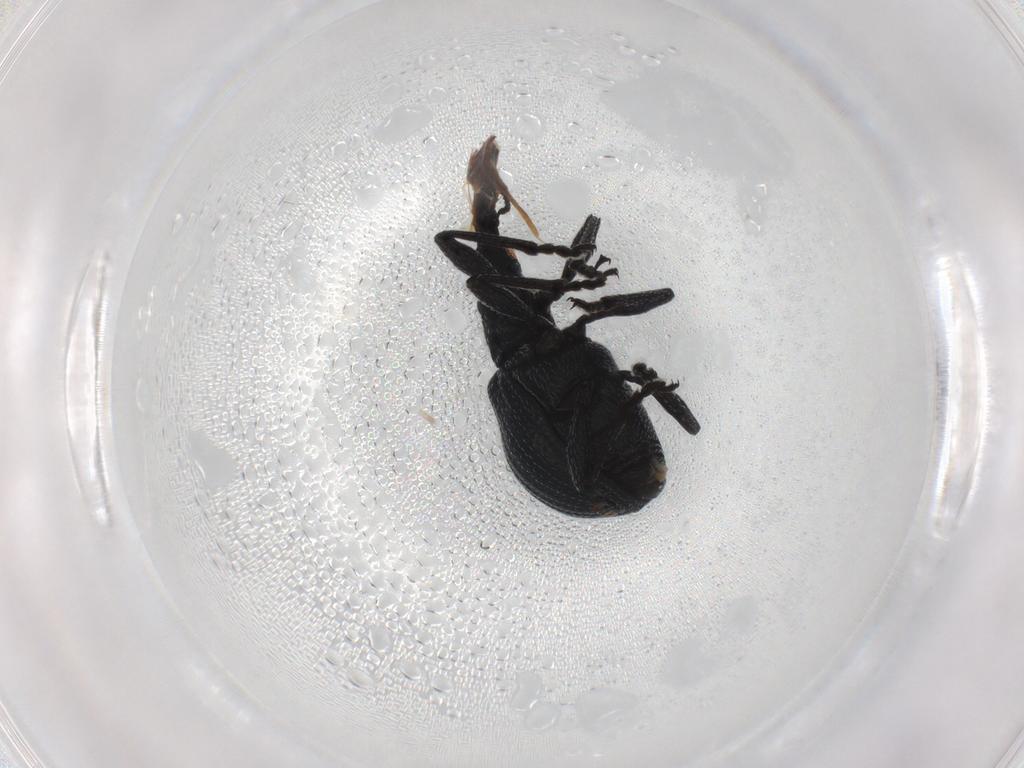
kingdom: Animalia
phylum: Arthropoda
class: Insecta
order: Coleoptera
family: Brentidae
